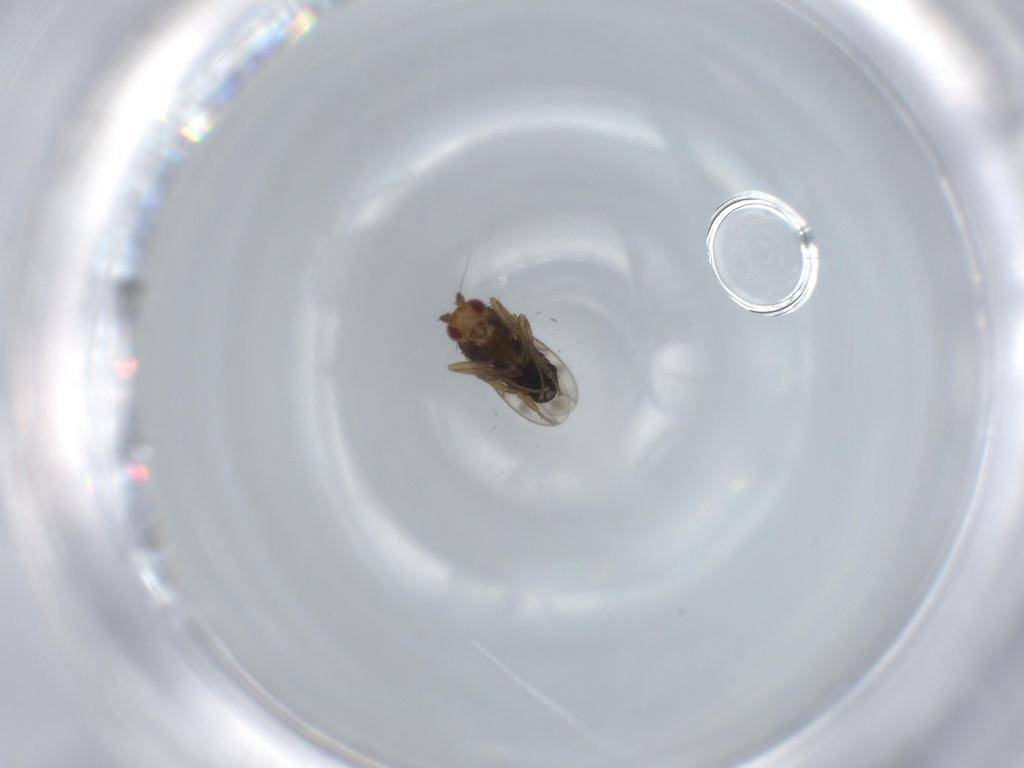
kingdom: Animalia
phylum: Arthropoda
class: Insecta
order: Diptera
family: Sphaeroceridae
